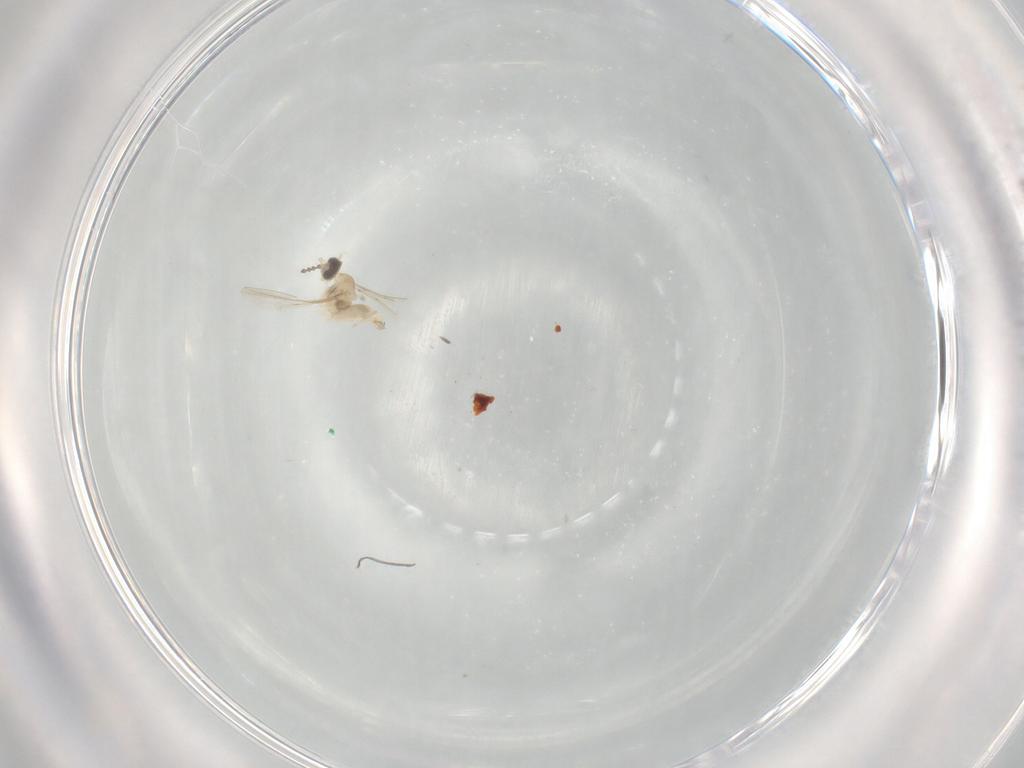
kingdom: Animalia
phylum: Arthropoda
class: Insecta
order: Diptera
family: Cecidomyiidae
